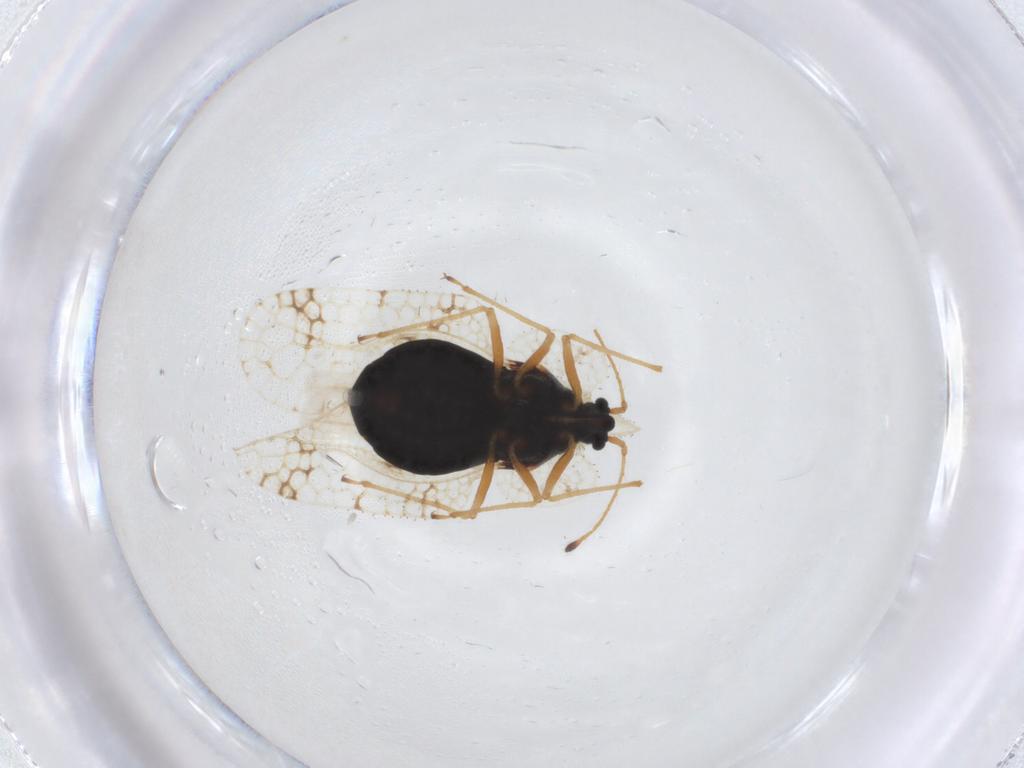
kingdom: Animalia
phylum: Arthropoda
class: Insecta
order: Hemiptera
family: Tingidae
